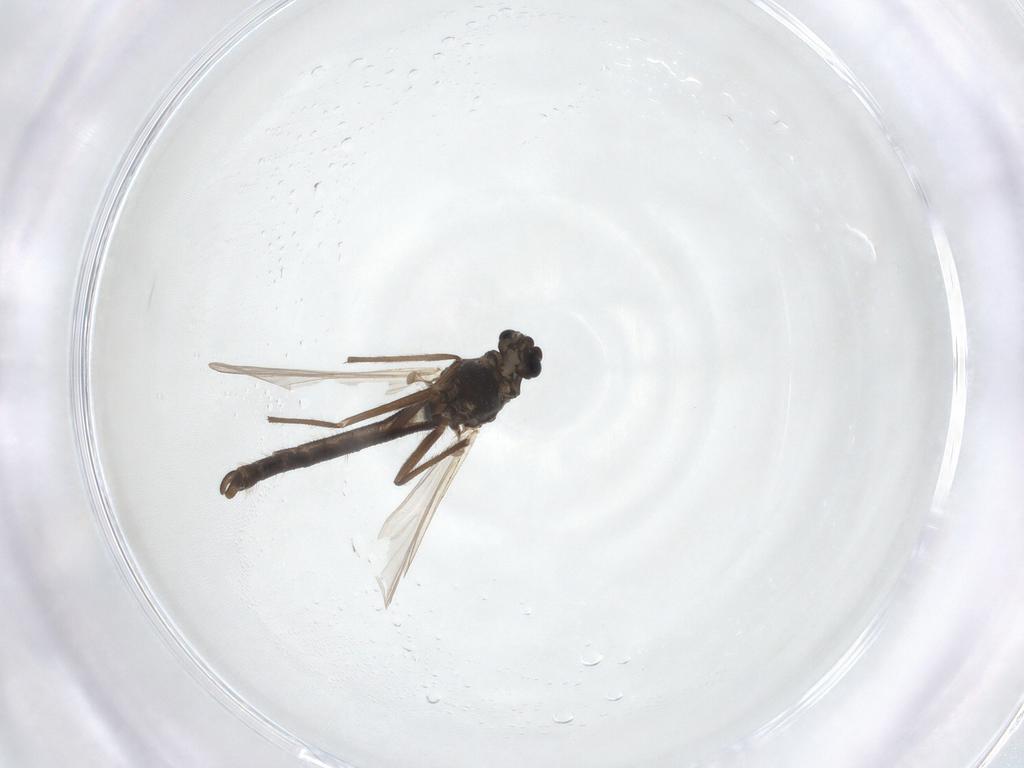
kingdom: Animalia
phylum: Arthropoda
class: Insecta
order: Diptera
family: Chironomidae
